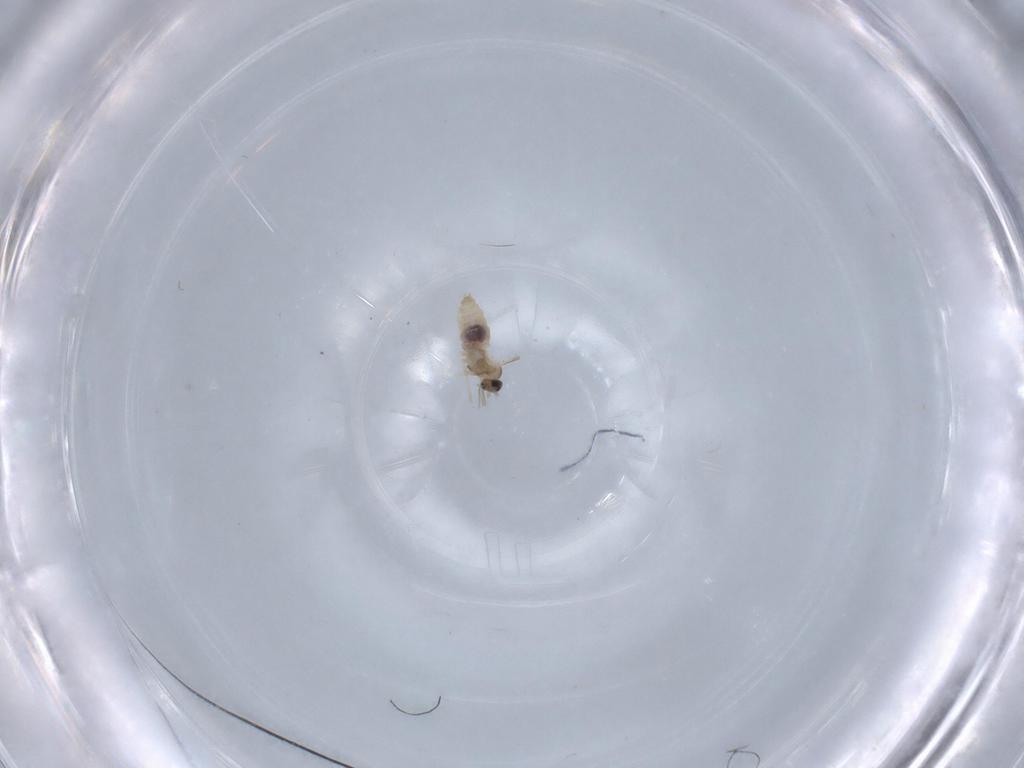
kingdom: Animalia
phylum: Arthropoda
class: Insecta
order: Diptera
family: Cecidomyiidae
